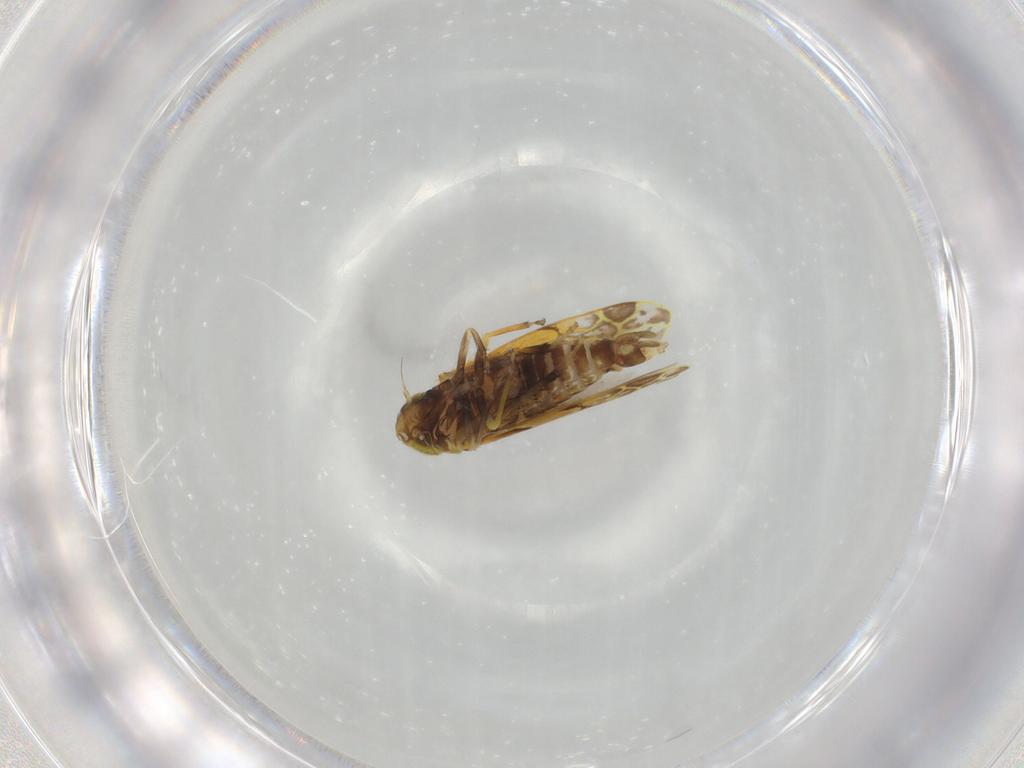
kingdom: Animalia
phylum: Arthropoda
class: Insecta
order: Hemiptera
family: Cicadellidae
